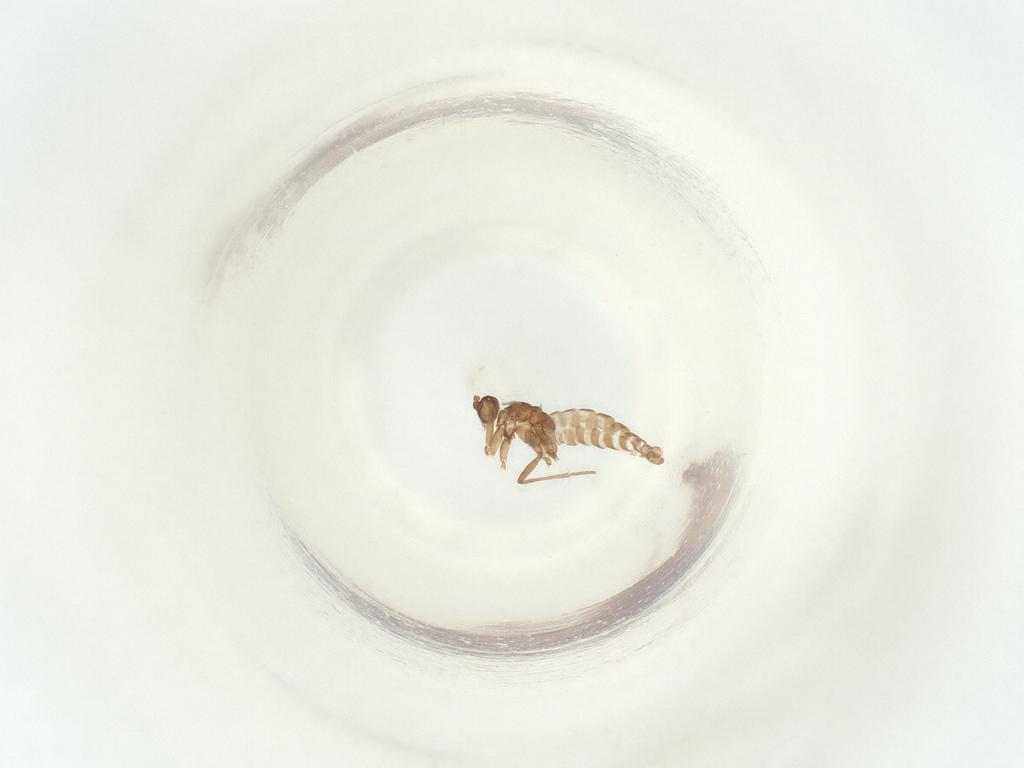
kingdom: Animalia
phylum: Arthropoda
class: Insecta
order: Diptera
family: Sciaridae
